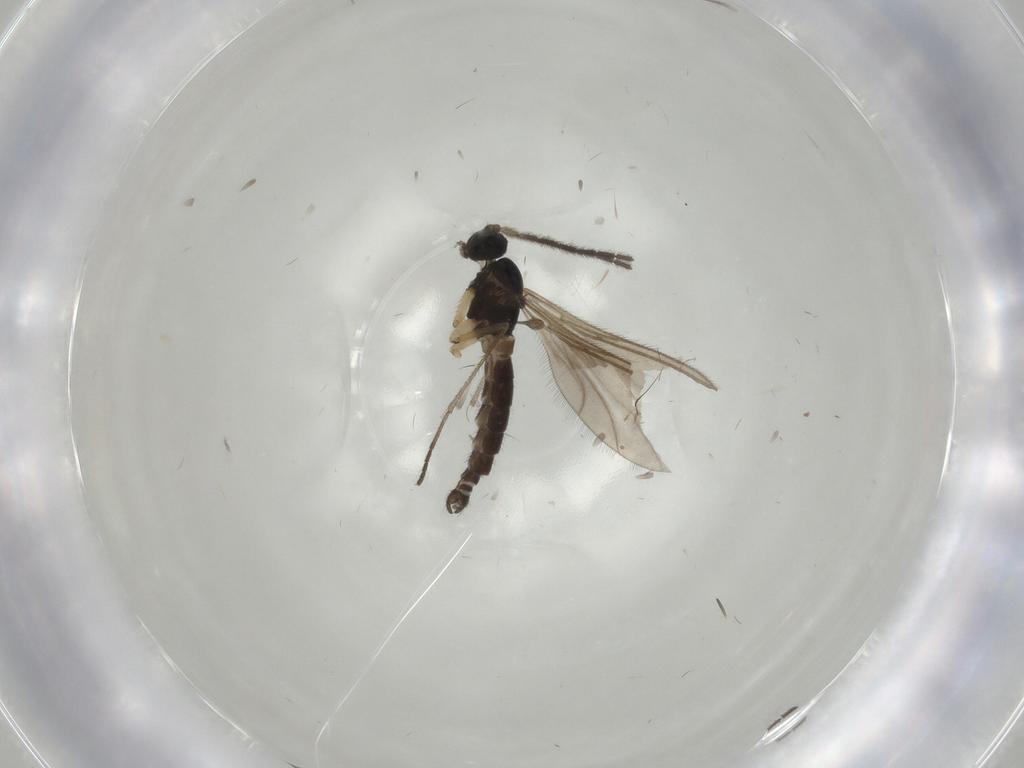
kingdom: Animalia
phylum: Arthropoda
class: Insecta
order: Diptera
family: Sciaridae
